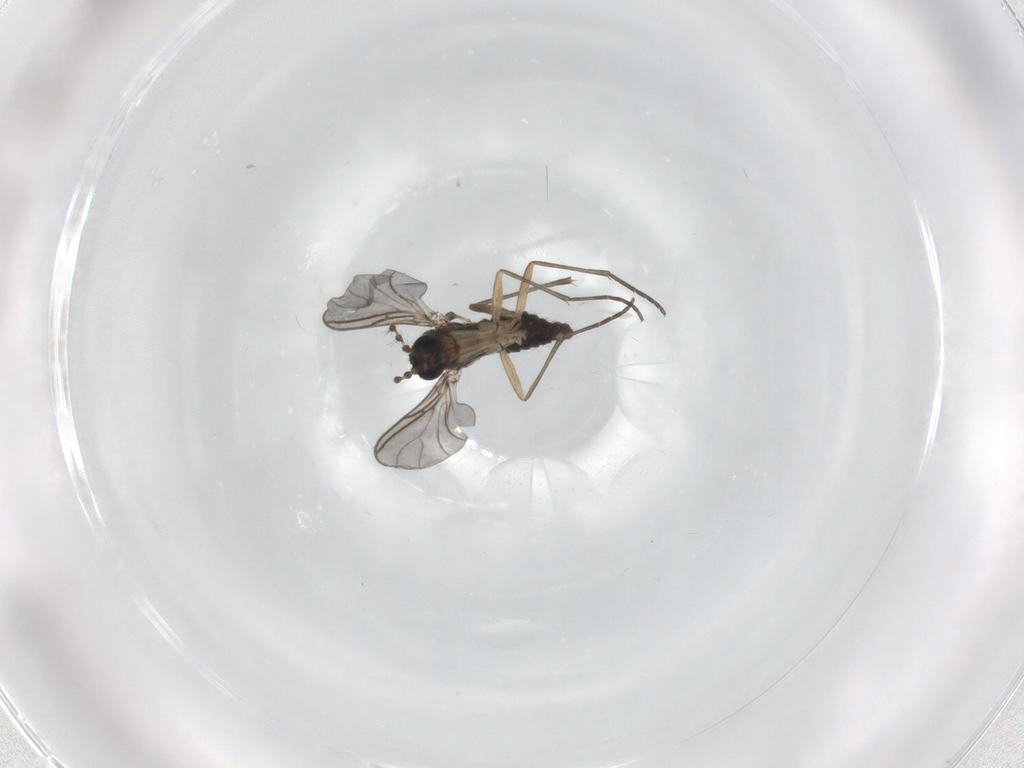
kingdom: Animalia
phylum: Arthropoda
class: Insecta
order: Diptera
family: Sciaridae
